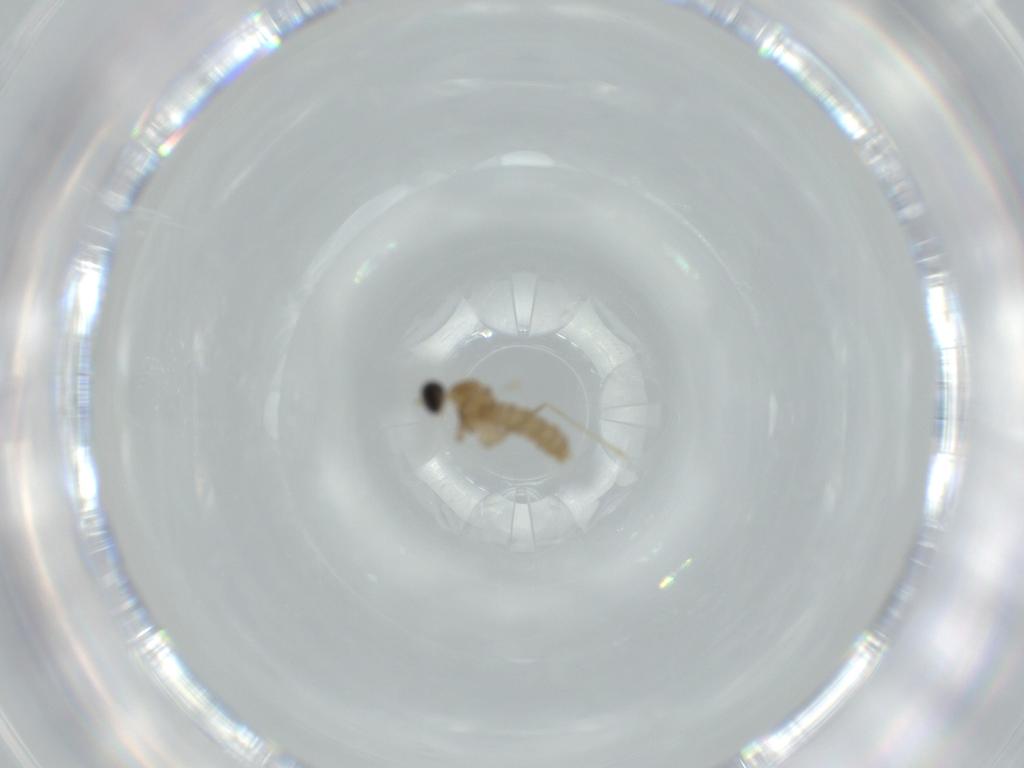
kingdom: Animalia
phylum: Arthropoda
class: Insecta
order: Diptera
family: Cecidomyiidae
